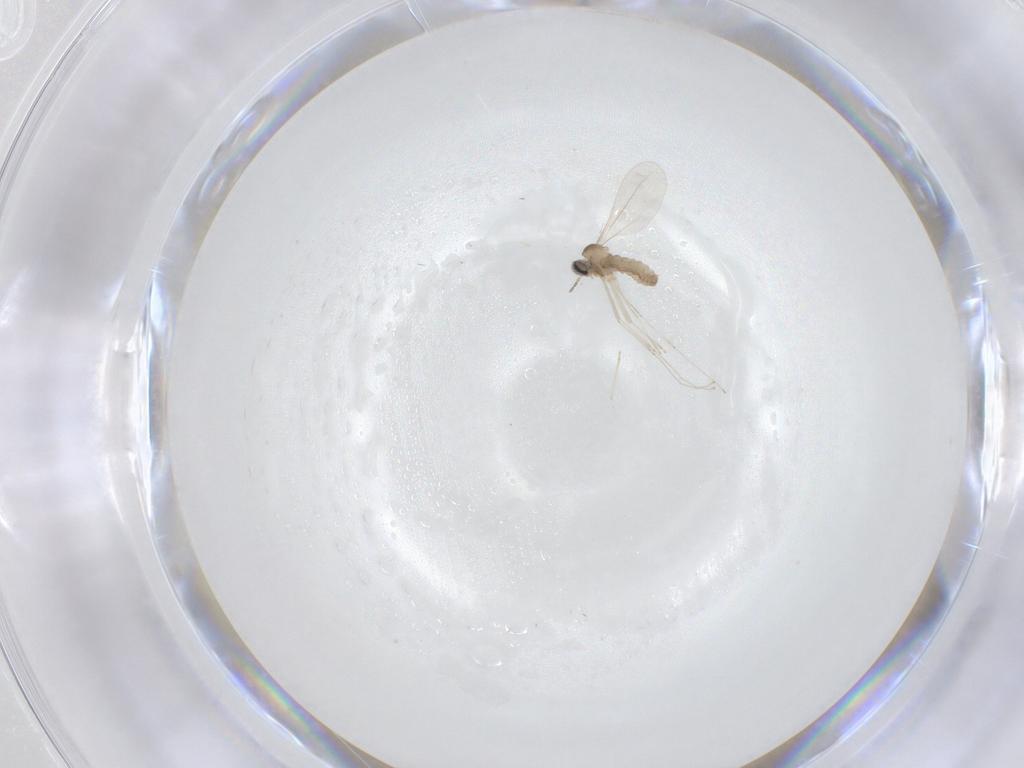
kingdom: Animalia
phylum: Arthropoda
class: Insecta
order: Diptera
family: Cecidomyiidae
